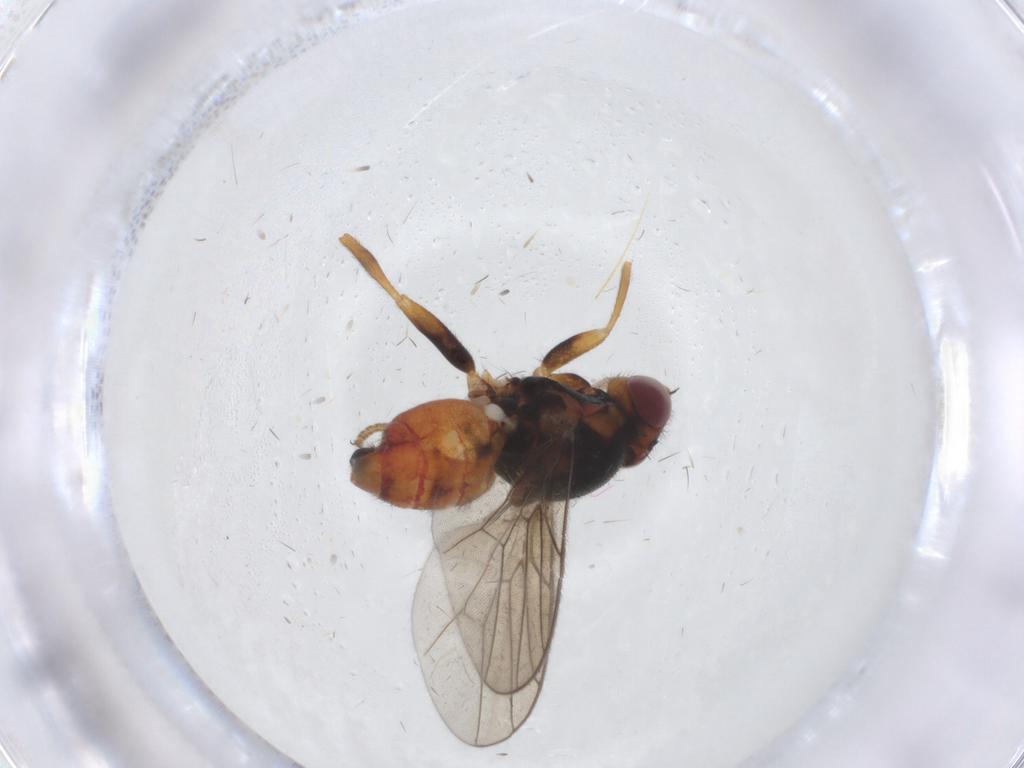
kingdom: Animalia
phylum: Arthropoda
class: Insecta
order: Diptera
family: Chloropidae
